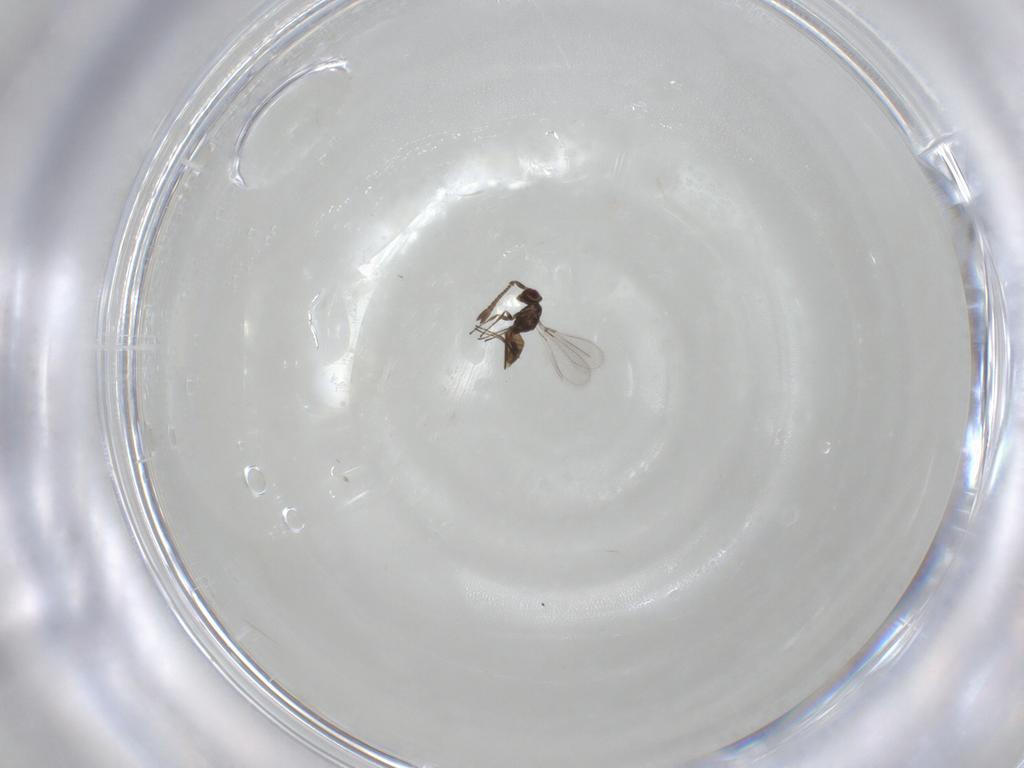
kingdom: Animalia
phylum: Arthropoda
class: Insecta
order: Hymenoptera
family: Mymaridae
